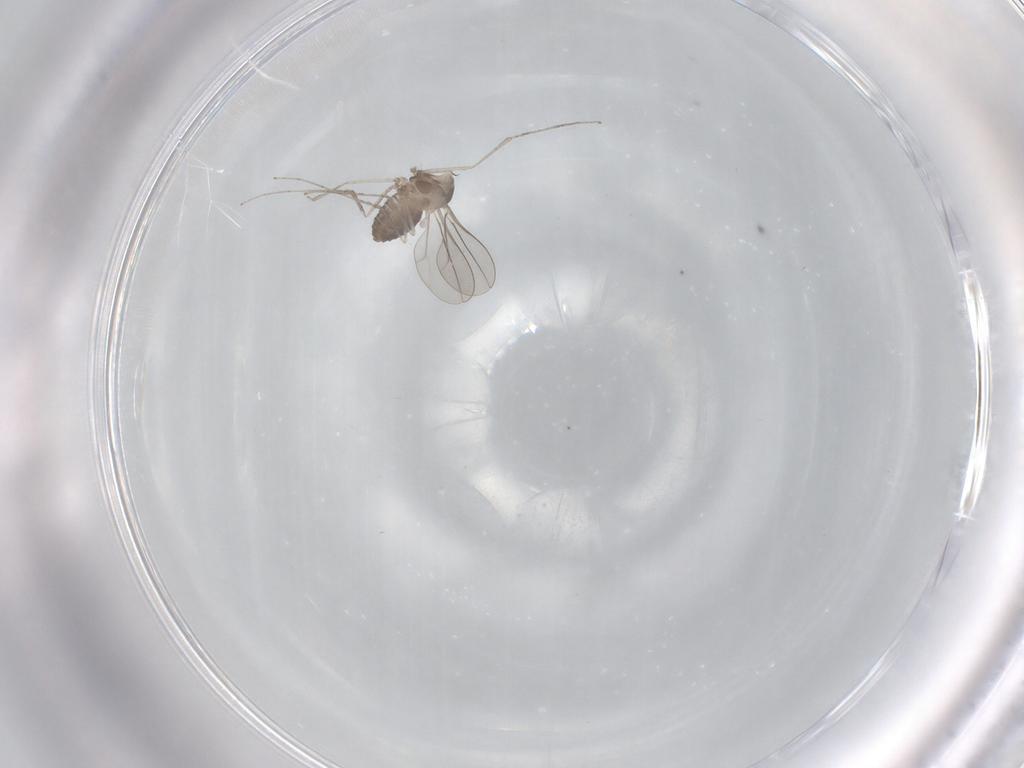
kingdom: Animalia
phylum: Arthropoda
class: Insecta
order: Diptera
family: Cecidomyiidae
